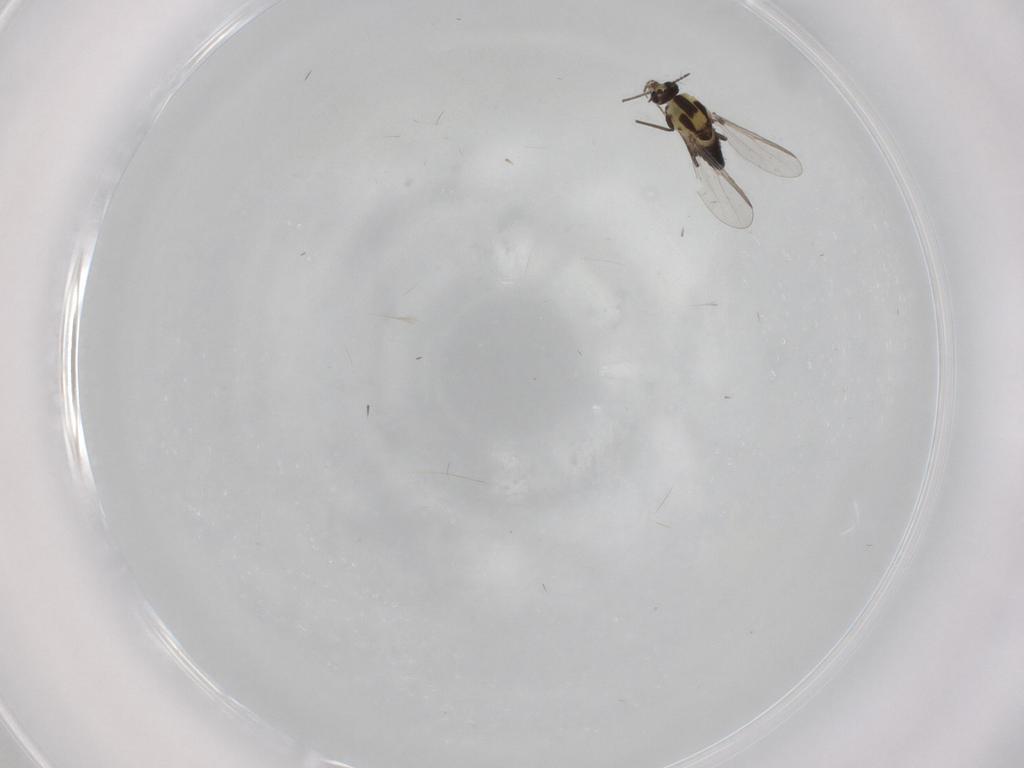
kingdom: Animalia
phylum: Arthropoda
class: Insecta
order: Diptera
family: Chironomidae
